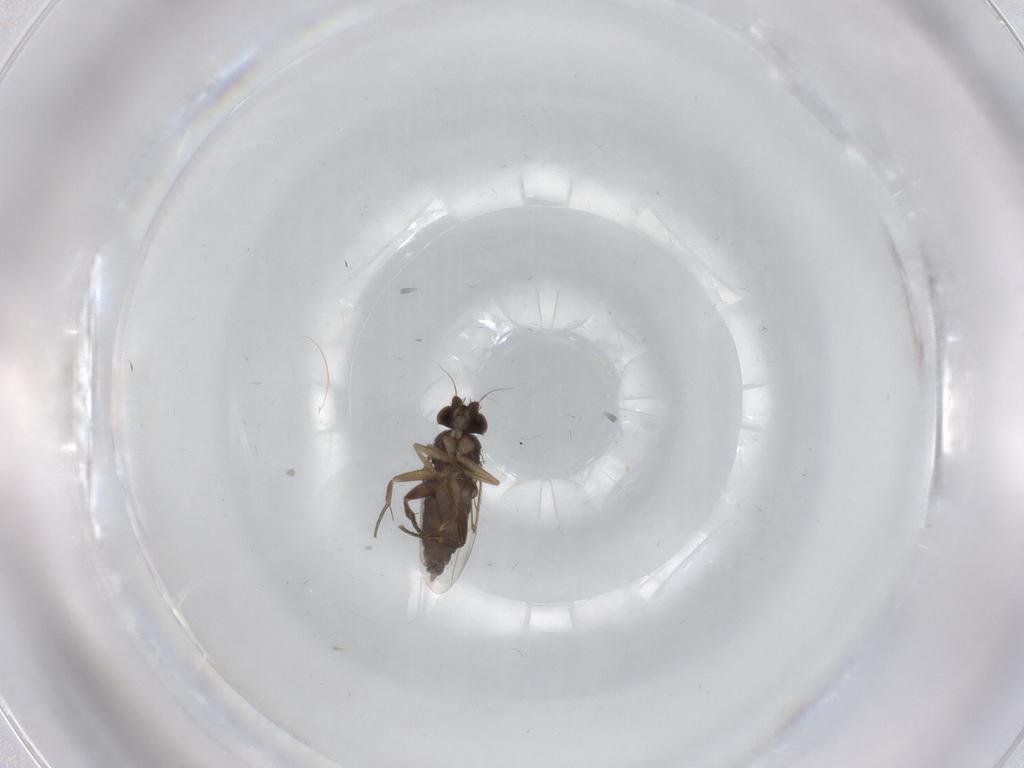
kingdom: Animalia
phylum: Arthropoda
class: Insecta
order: Diptera
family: Phoridae
